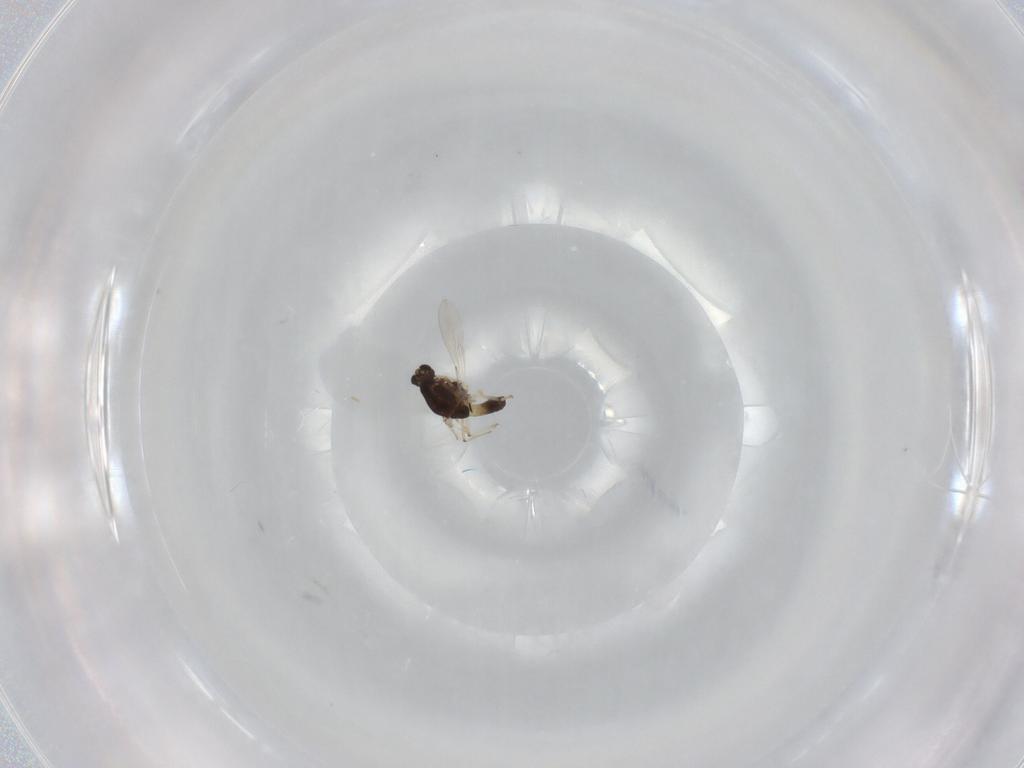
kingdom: Animalia
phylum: Arthropoda
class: Insecta
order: Diptera
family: Chironomidae
